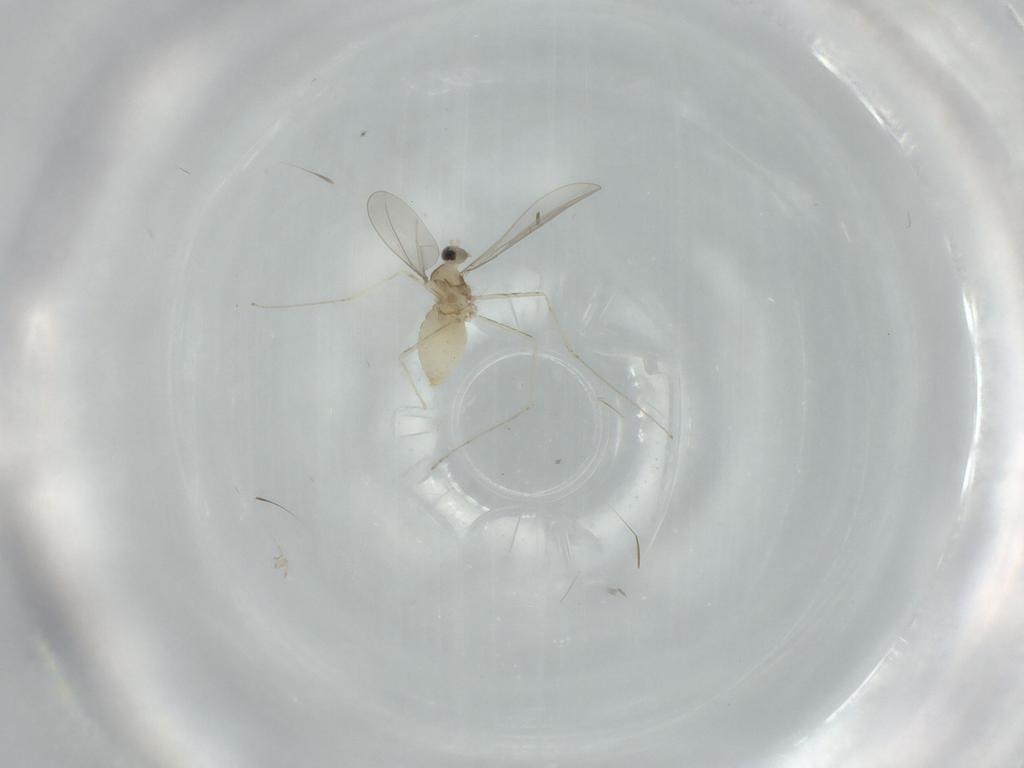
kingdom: Animalia
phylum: Arthropoda
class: Insecta
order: Diptera
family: Cecidomyiidae
